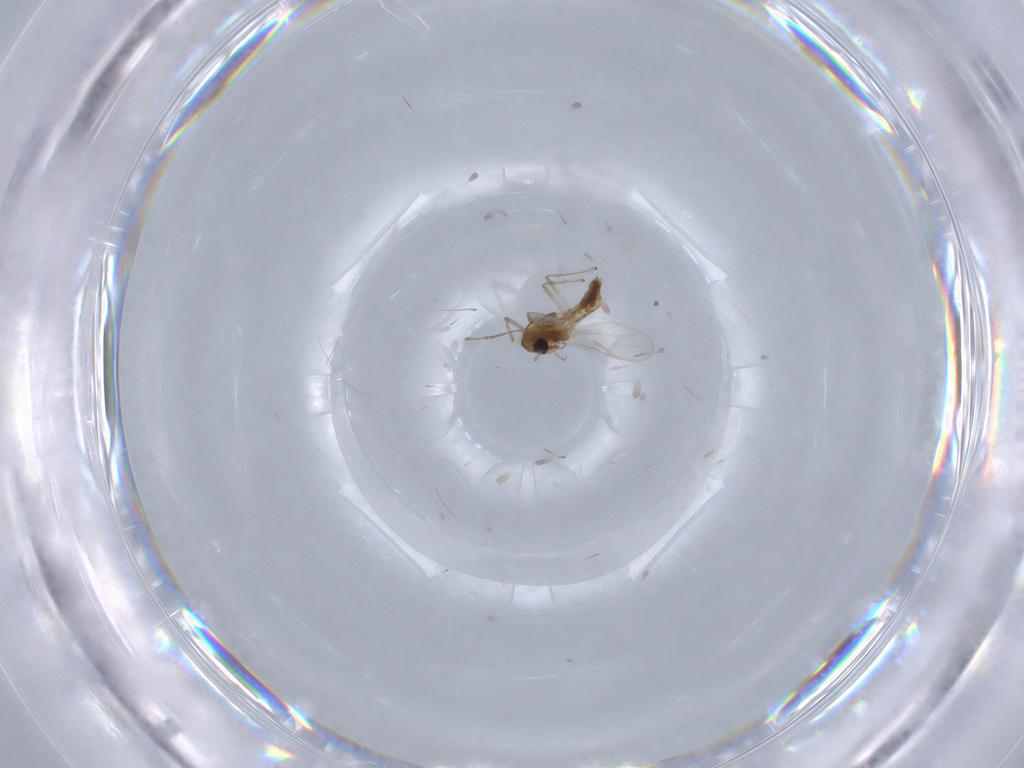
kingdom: Animalia
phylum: Arthropoda
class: Insecta
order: Diptera
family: Chironomidae
